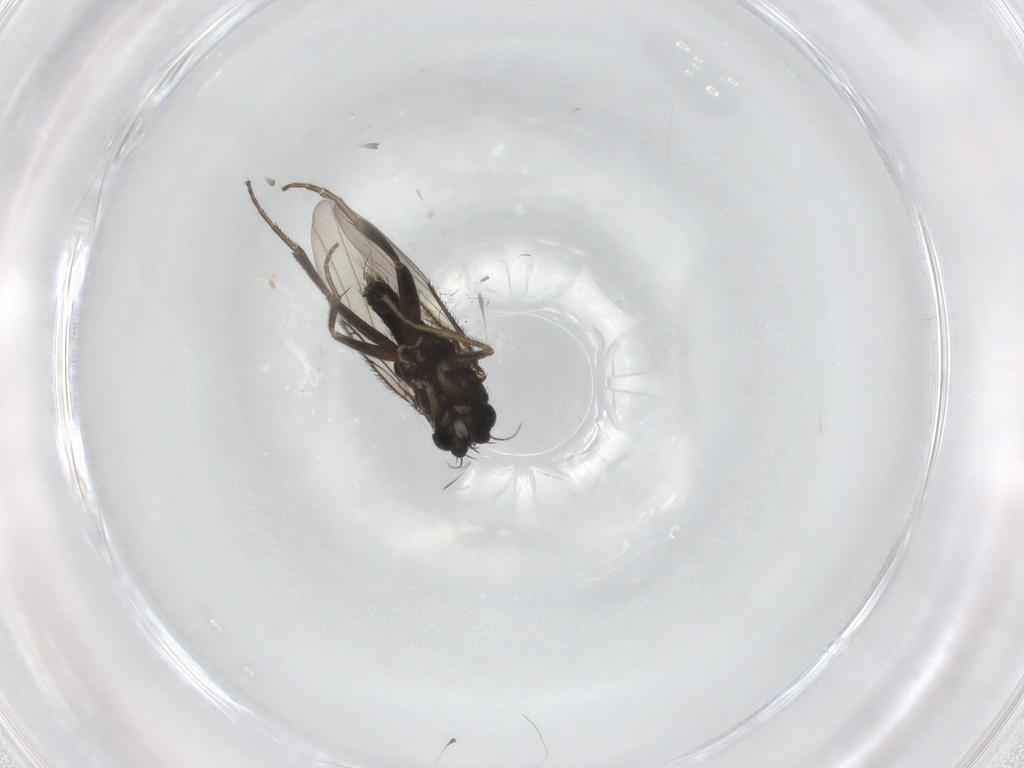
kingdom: Animalia
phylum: Arthropoda
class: Insecta
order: Diptera
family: Phoridae
